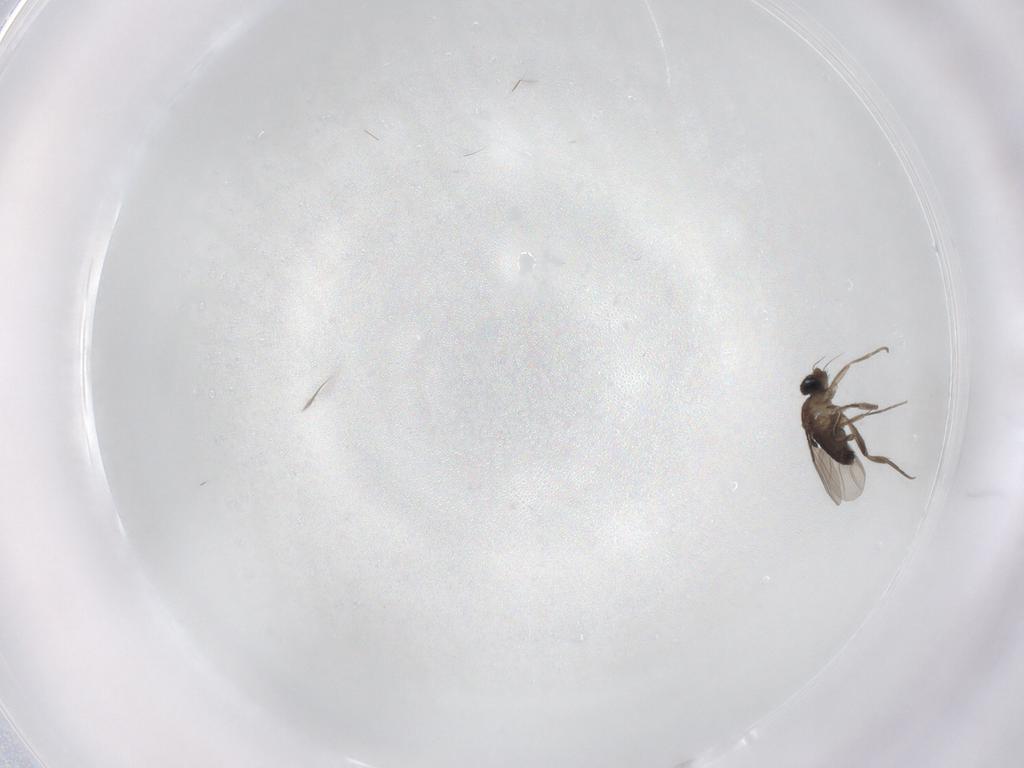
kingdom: Animalia
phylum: Arthropoda
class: Insecta
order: Diptera
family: Phoridae
